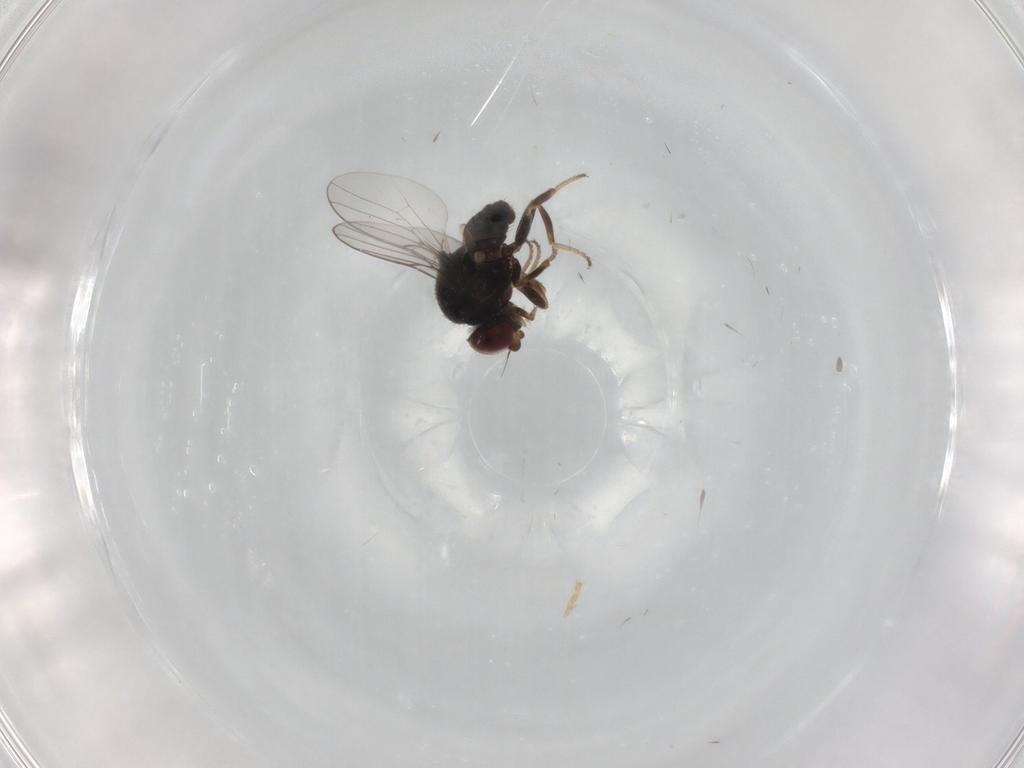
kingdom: Animalia
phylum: Arthropoda
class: Insecta
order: Diptera
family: Chloropidae
